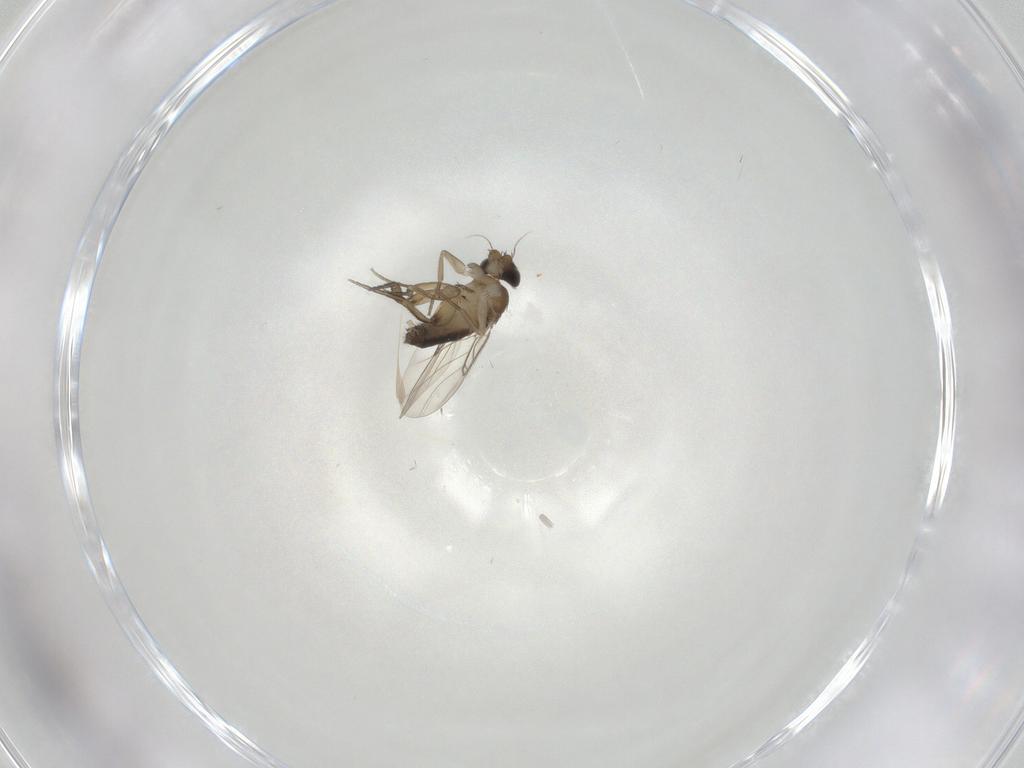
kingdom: Animalia
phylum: Arthropoda
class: Insecta
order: Diptera
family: Phoridae
